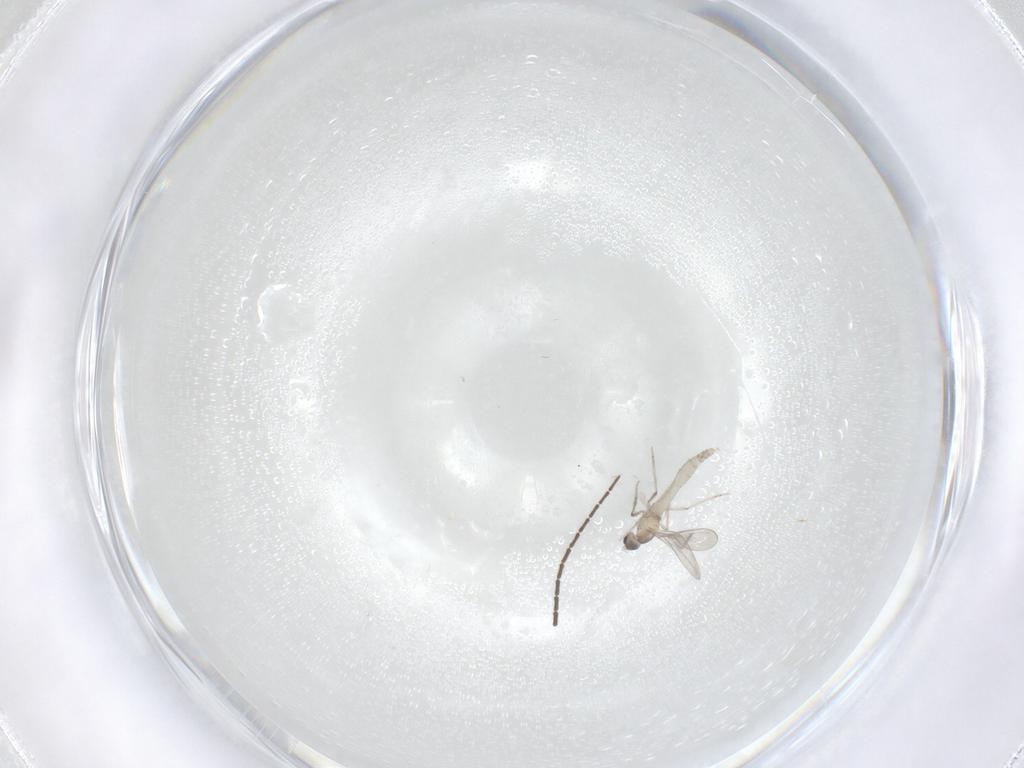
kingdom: Animalia
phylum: Arthropoda
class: Insecta
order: Diptera
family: Cecidomyiidae
